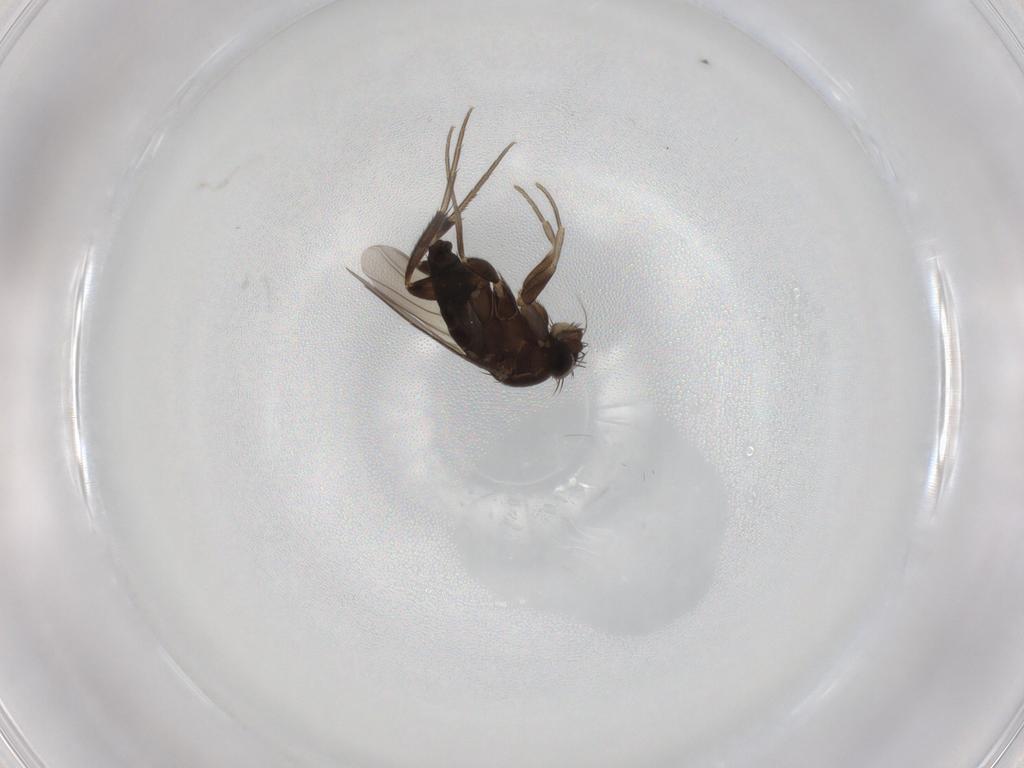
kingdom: Animalia
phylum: Arthropoda
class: Insecta
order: Diptera
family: Phoridae
